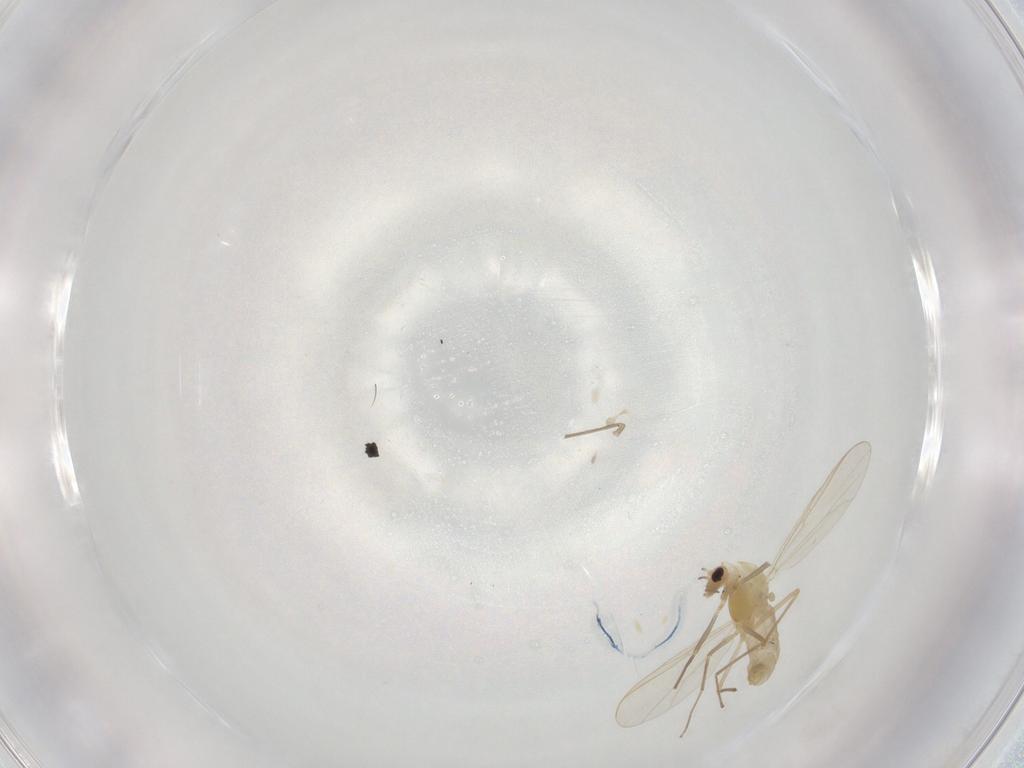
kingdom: Animalia
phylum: Arthropoda
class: Insecta
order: Diptera
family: Chironomidae
